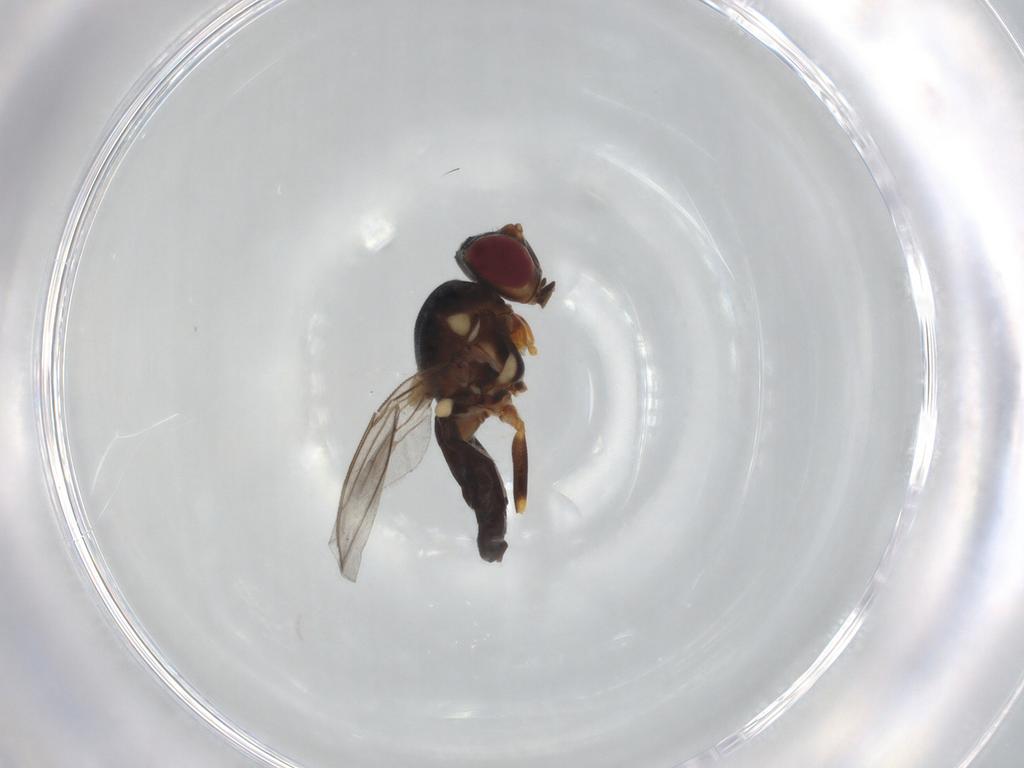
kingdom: Animalia
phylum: Arthropoda
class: Insecta
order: Diptera
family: Chloropidae
